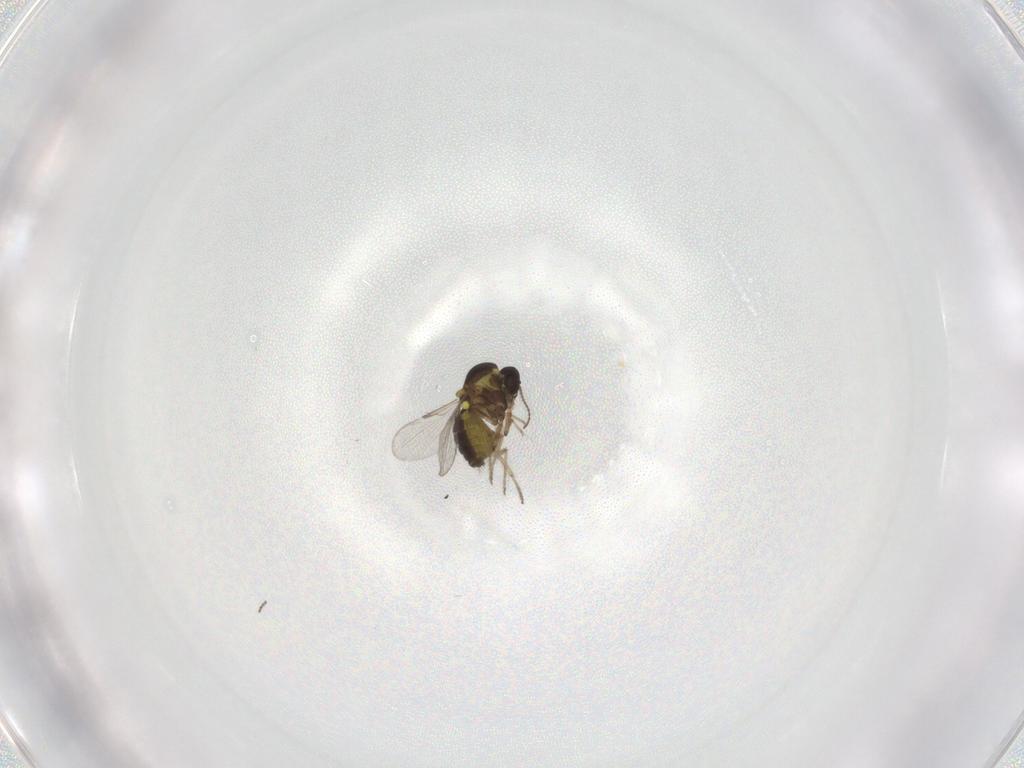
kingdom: Animalia
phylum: Arthropoda
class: Insecta
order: Diptera
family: Ceratopogonidae
